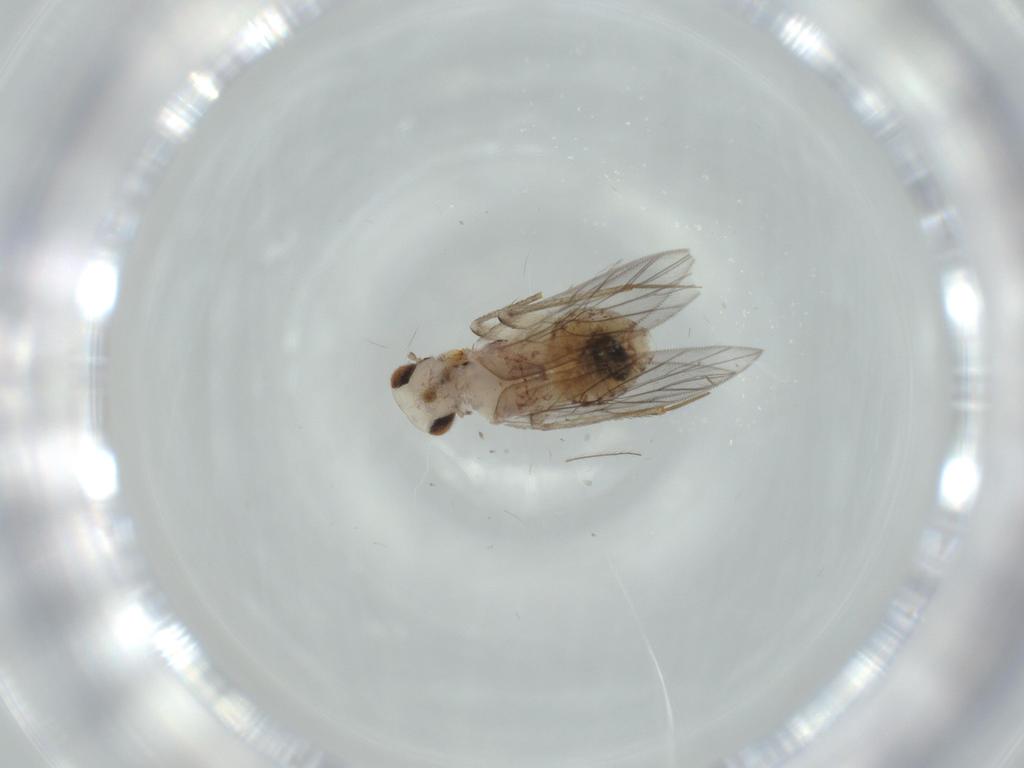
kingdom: Animalia
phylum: Arthropoda
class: Insecta
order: Psocodea
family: Lepidopsocidae
